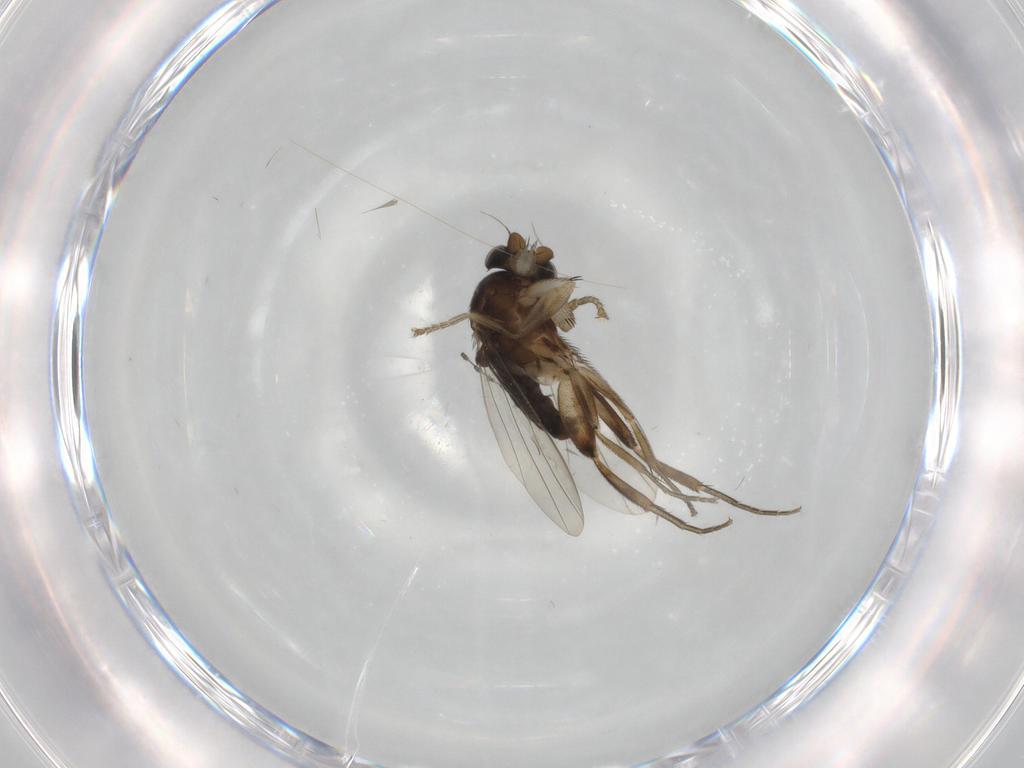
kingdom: Animalia
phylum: Arthropoda
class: Insecta
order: Diptera
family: Phoridae
